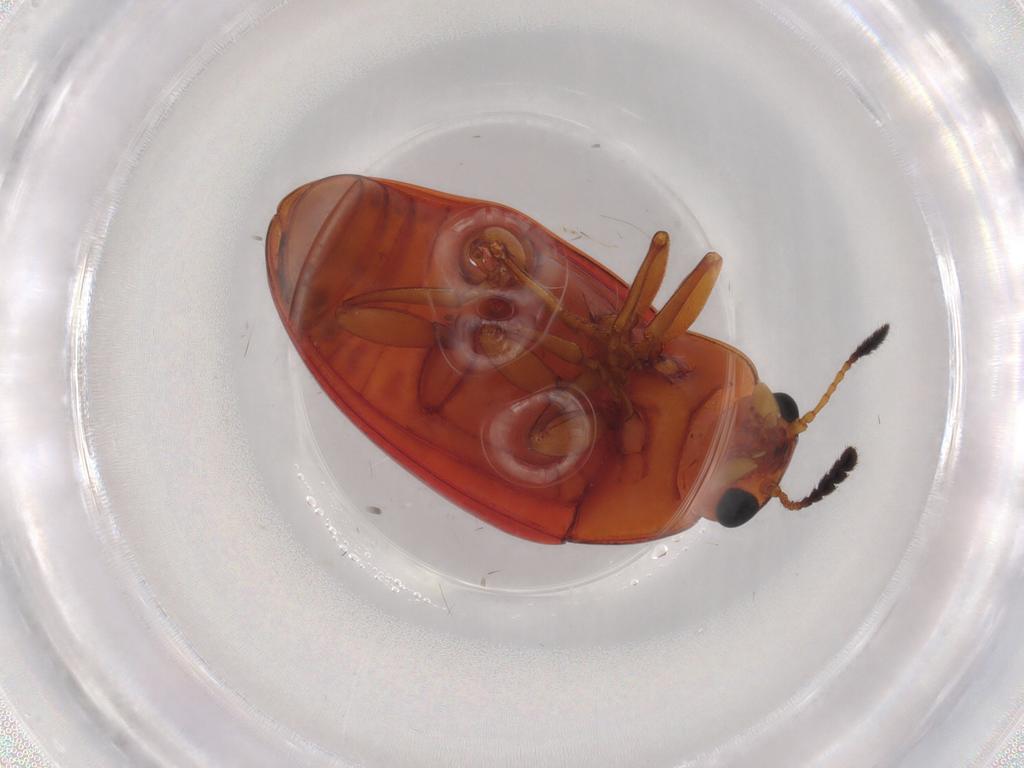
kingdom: Animalia
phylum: Arthropoda
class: Insecta
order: Coleoptera
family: Erotylidae
